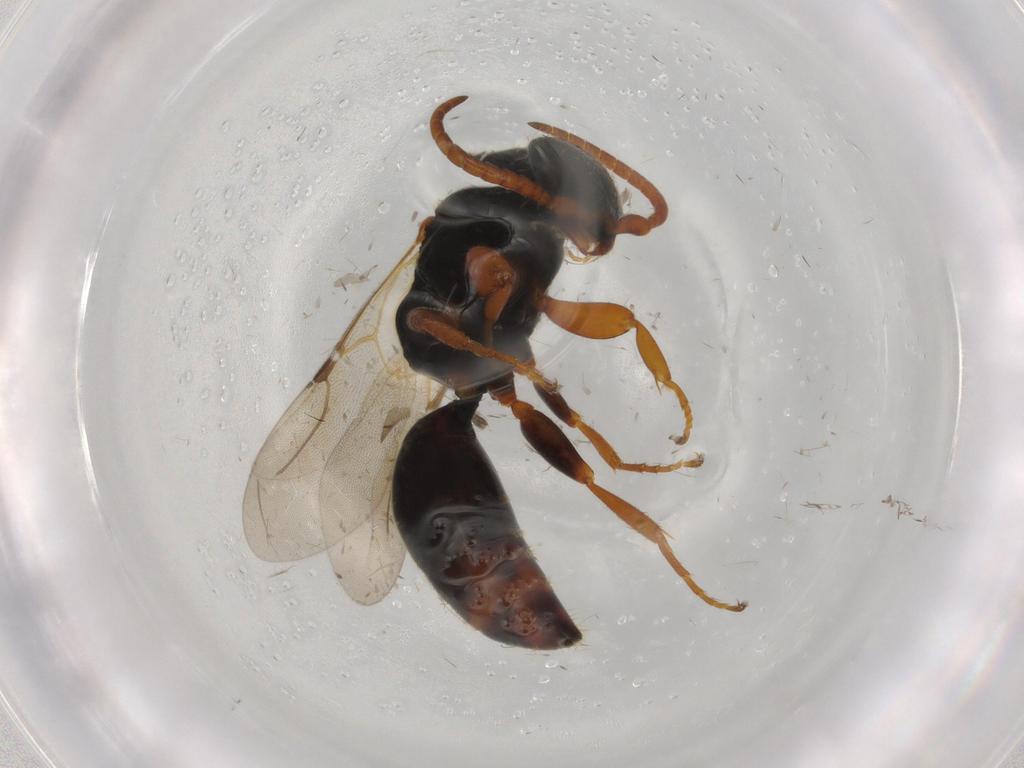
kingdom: Animalia
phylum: Arthropoda
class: Insecta
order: Hymenoptera
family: Bethylidae
